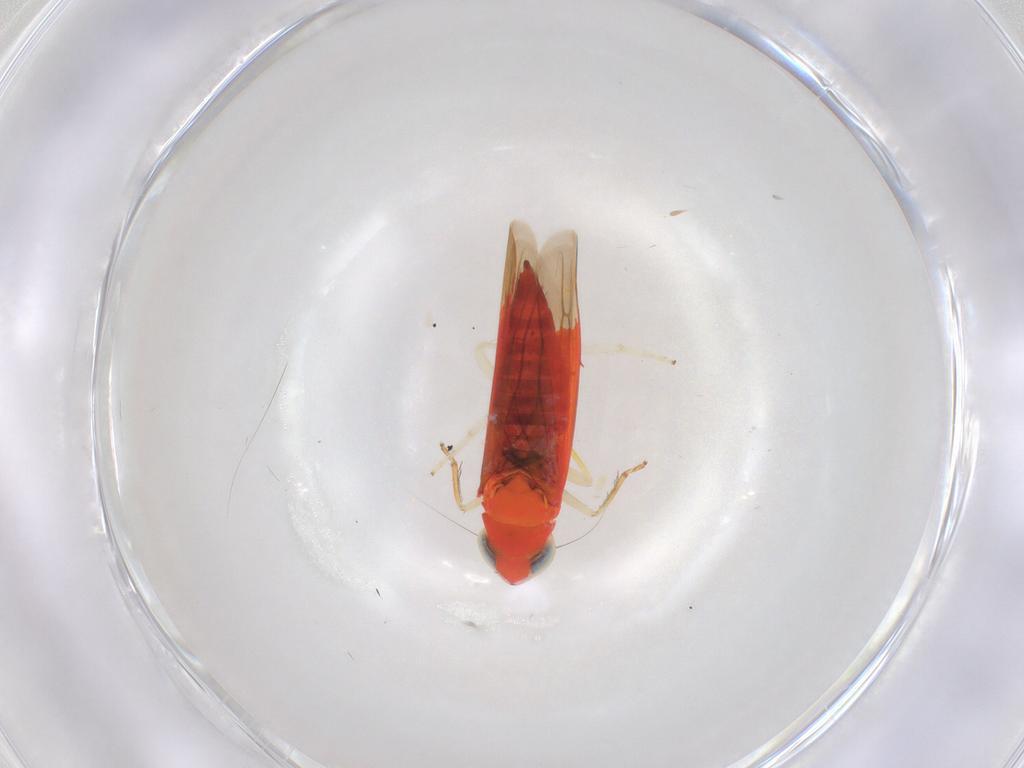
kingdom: Animalia
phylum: Arthropoda
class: Insecta
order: Hemiptera
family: Cicadellidae
